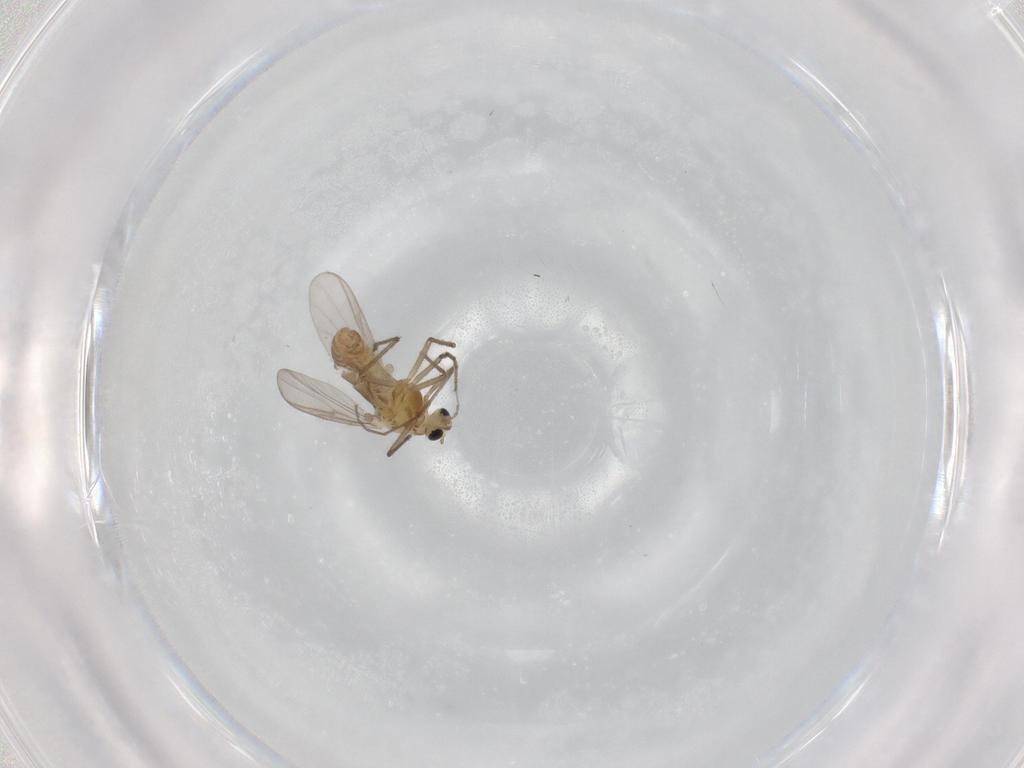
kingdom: Animalia
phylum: Arthropoda
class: Insecta
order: Diptera
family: Chironomidae
